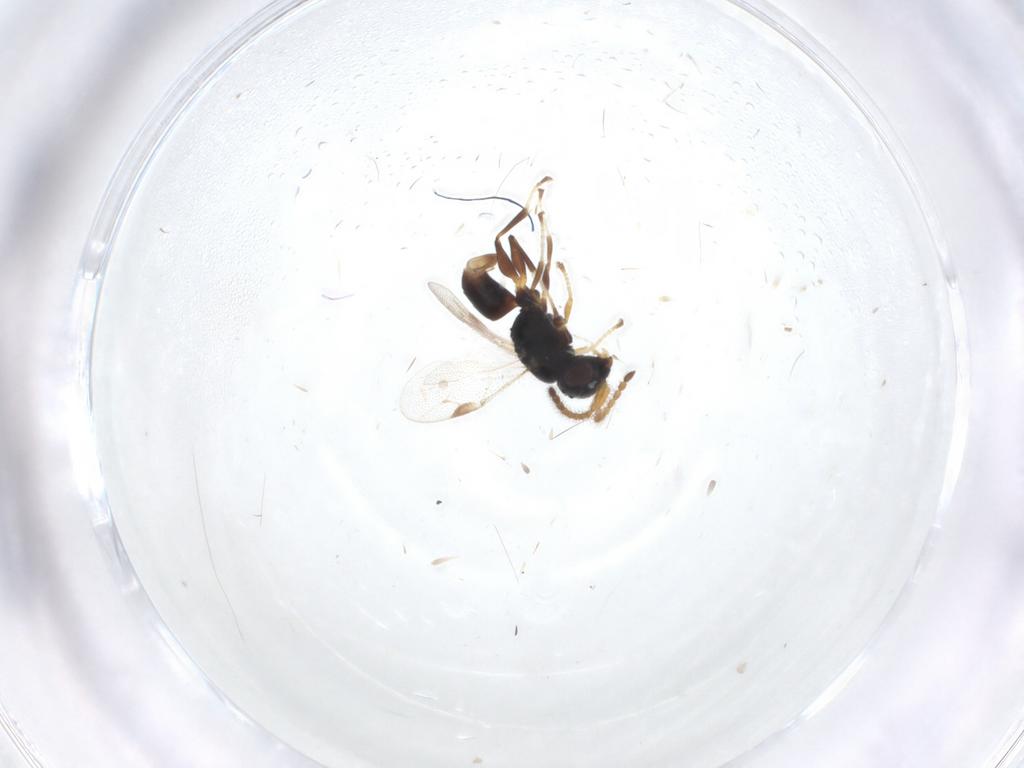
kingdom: Animalia
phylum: Arthropoda
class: Insecta
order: Hymenoptera
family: Dryinidae
